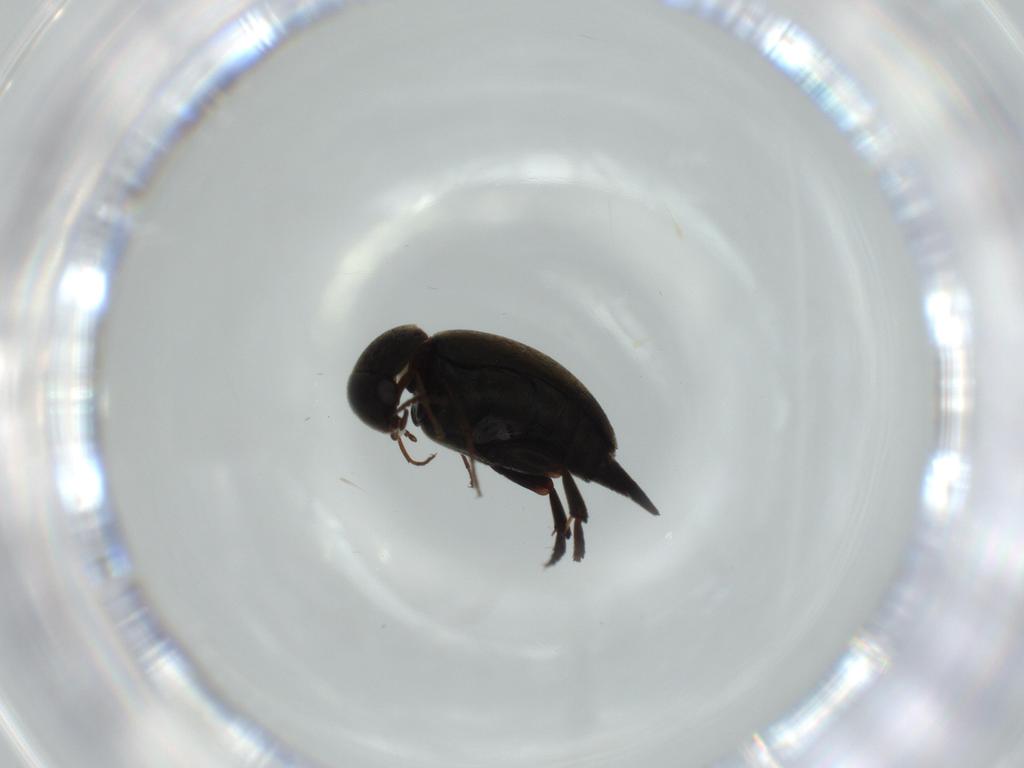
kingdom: Animalia
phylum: Arthropoda
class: Insecta
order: Coleoptera
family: Mordellidae
